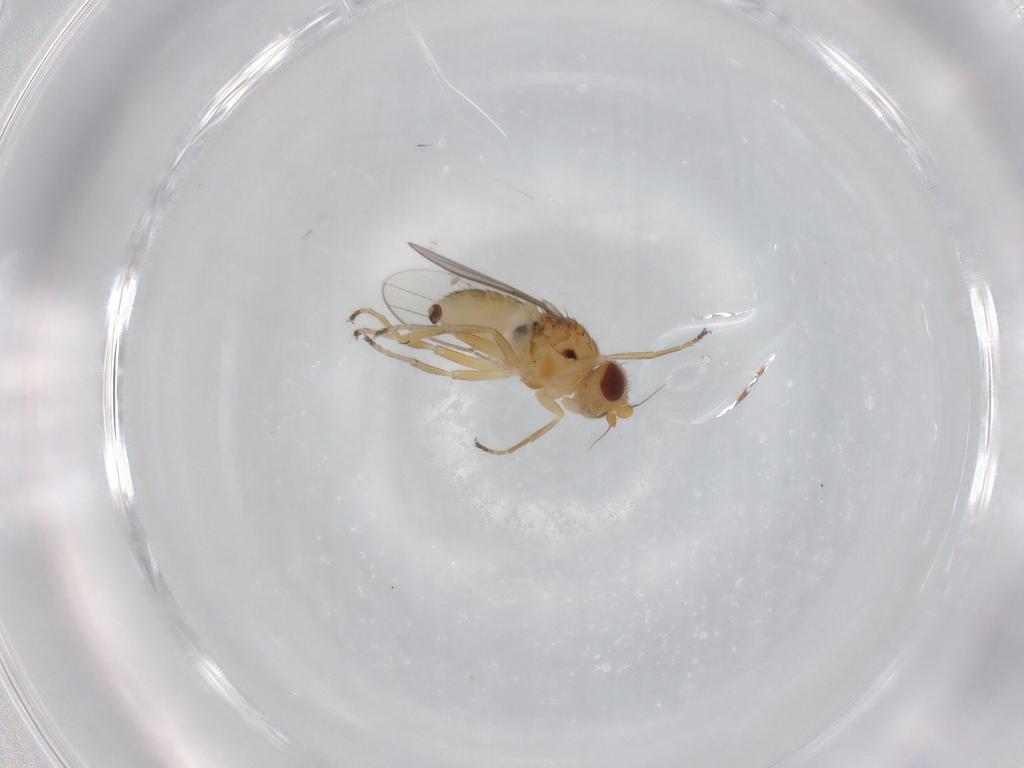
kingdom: Animalia
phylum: Arthropoda
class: Insecta
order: Diptera
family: Chloropidae
